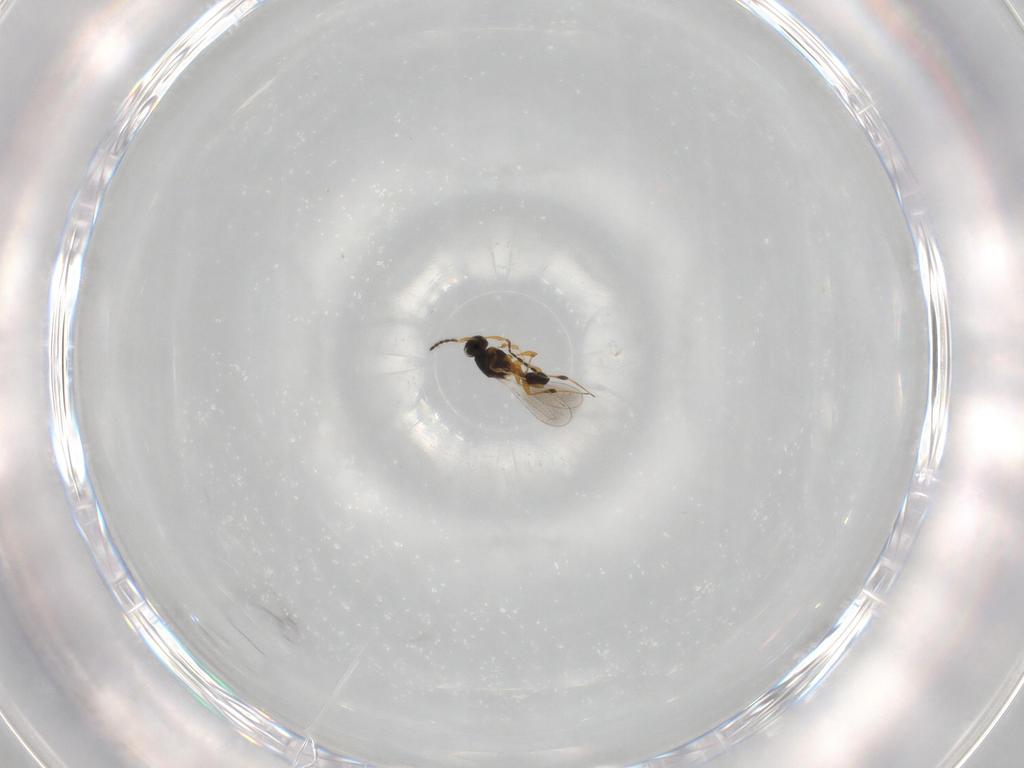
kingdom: Animalia
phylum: Arthropoda
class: Insecta
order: Hymenoptera
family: Platygastridae
